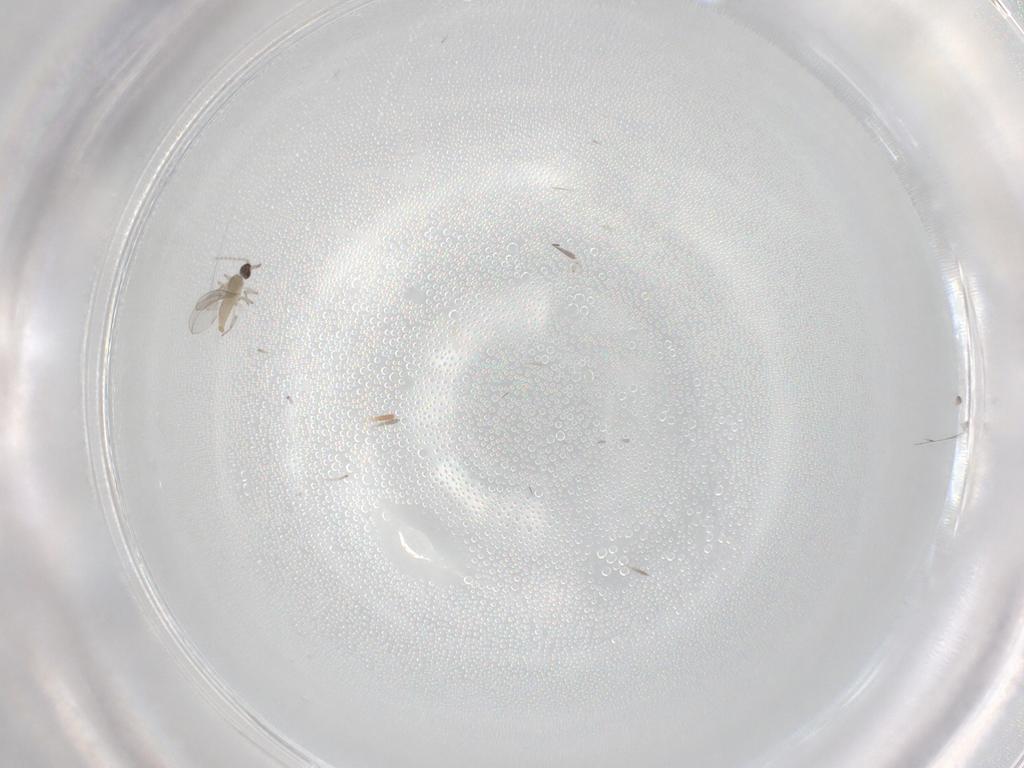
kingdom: Animalia
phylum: Arthropoda
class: Insecta
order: Diptera
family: Cecidomyiidae
